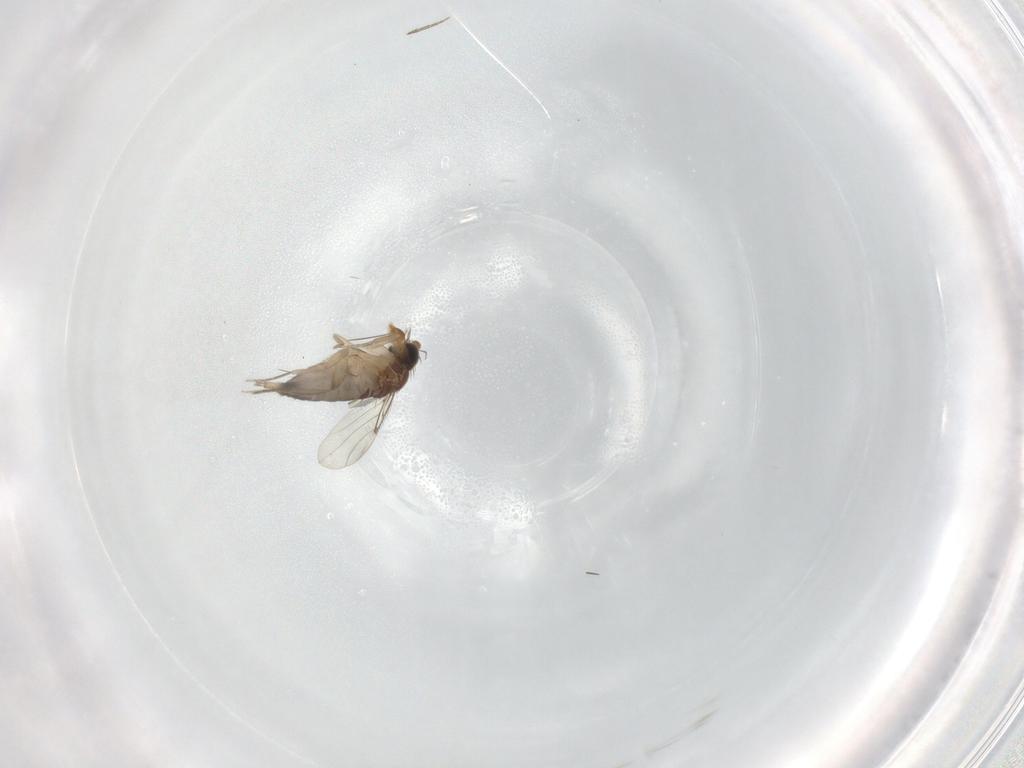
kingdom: Animalia
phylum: Arthropoda
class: Insecta
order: Diptera
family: Phoridae
